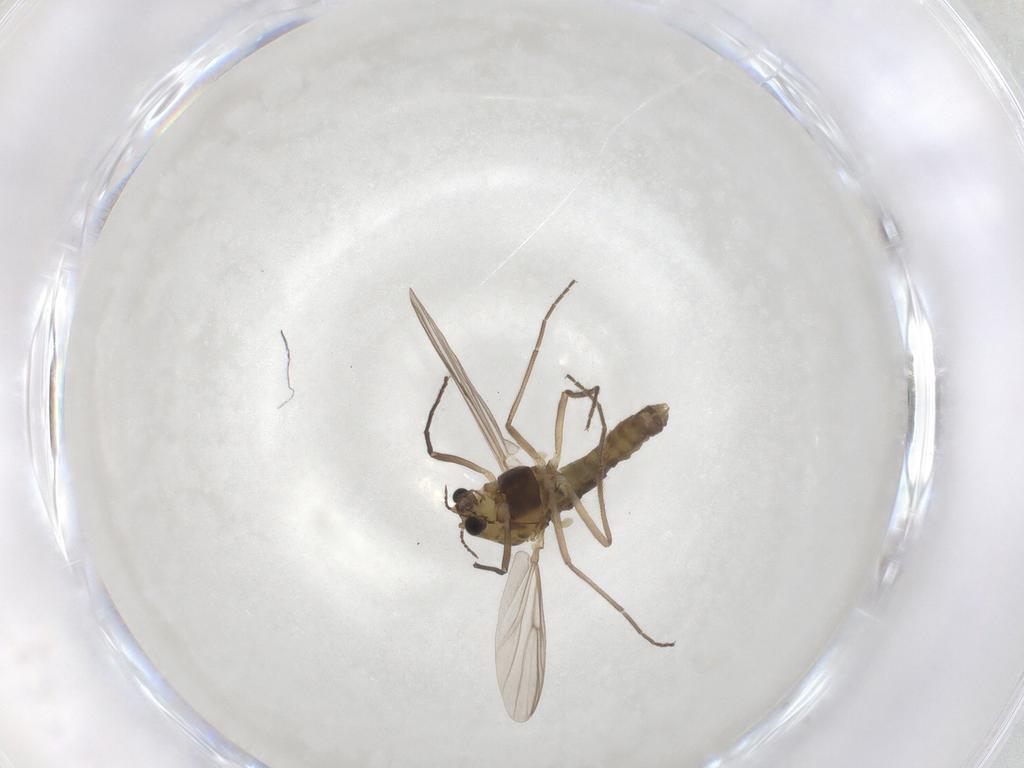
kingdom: Animalia
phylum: Arthropoda
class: Insecta
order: Diptera
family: Chironomidae
